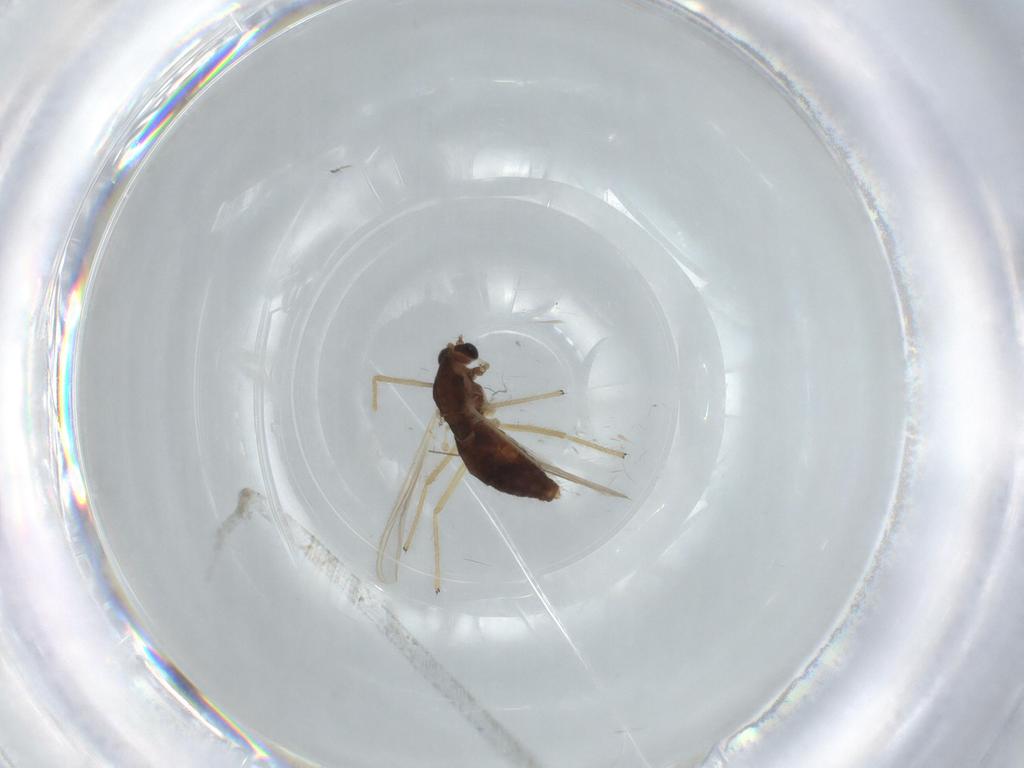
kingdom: Animalia
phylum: Arthropoda
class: Insecta
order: Diptera
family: Chironomidae
